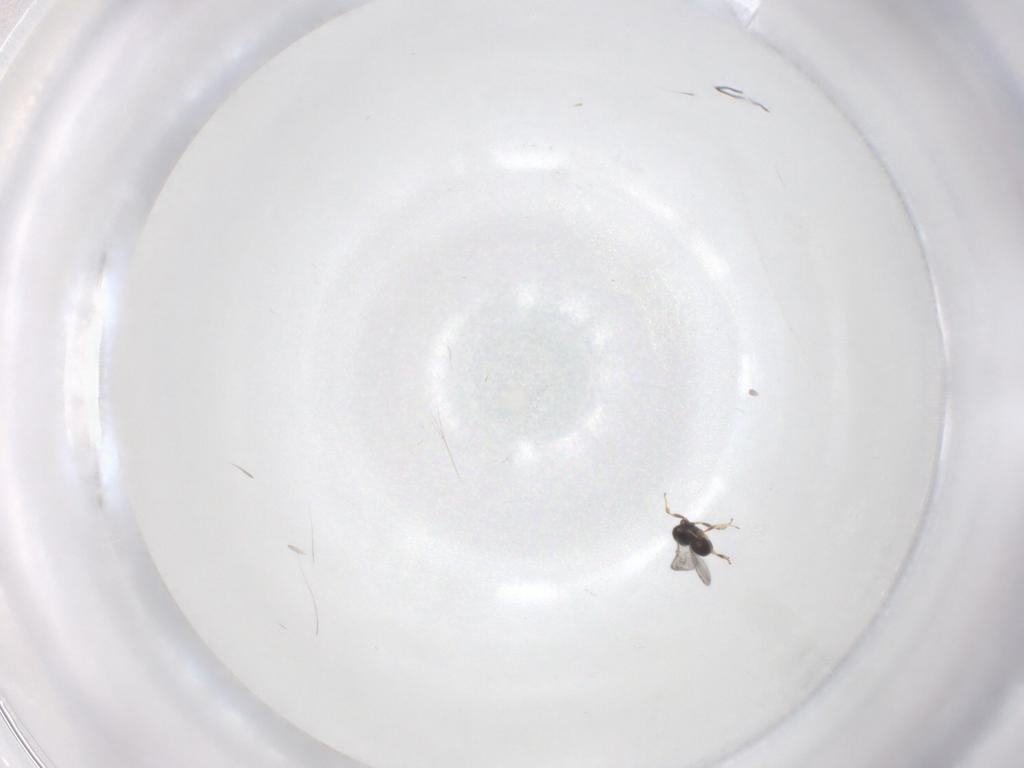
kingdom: Animalia
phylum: Arthropoda
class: Insecta
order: Hymenoptera
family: Scelionidae
